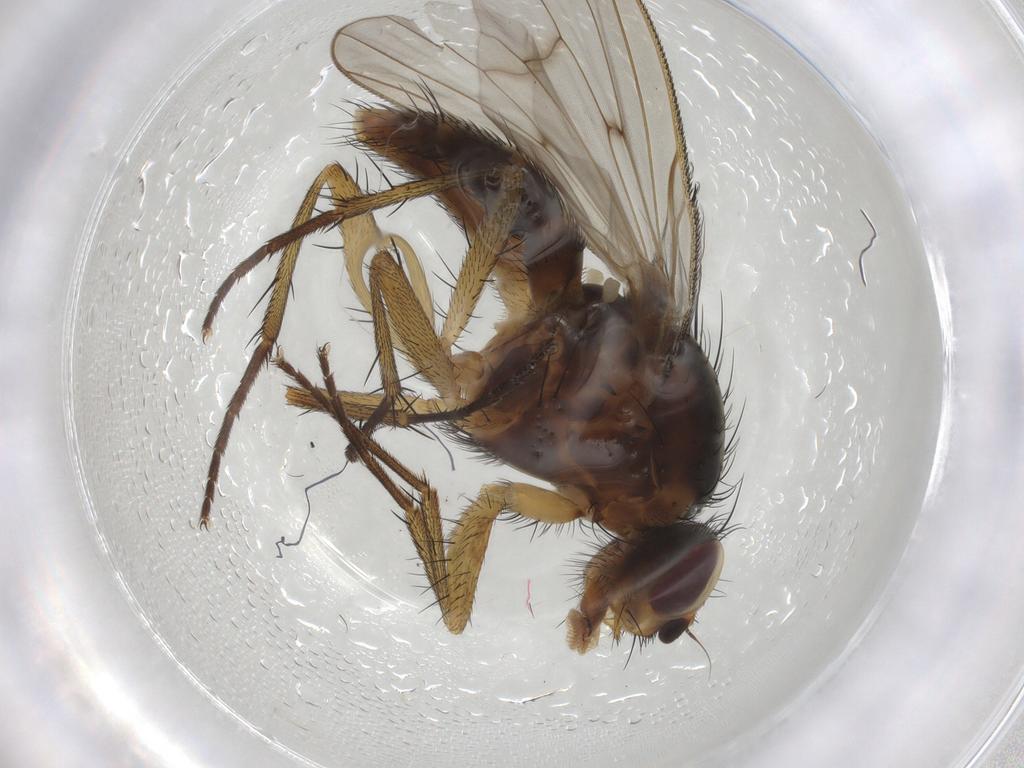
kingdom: Animalia
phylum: Arthropoda
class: Insecta
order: Diptera
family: Anthomyiidae
